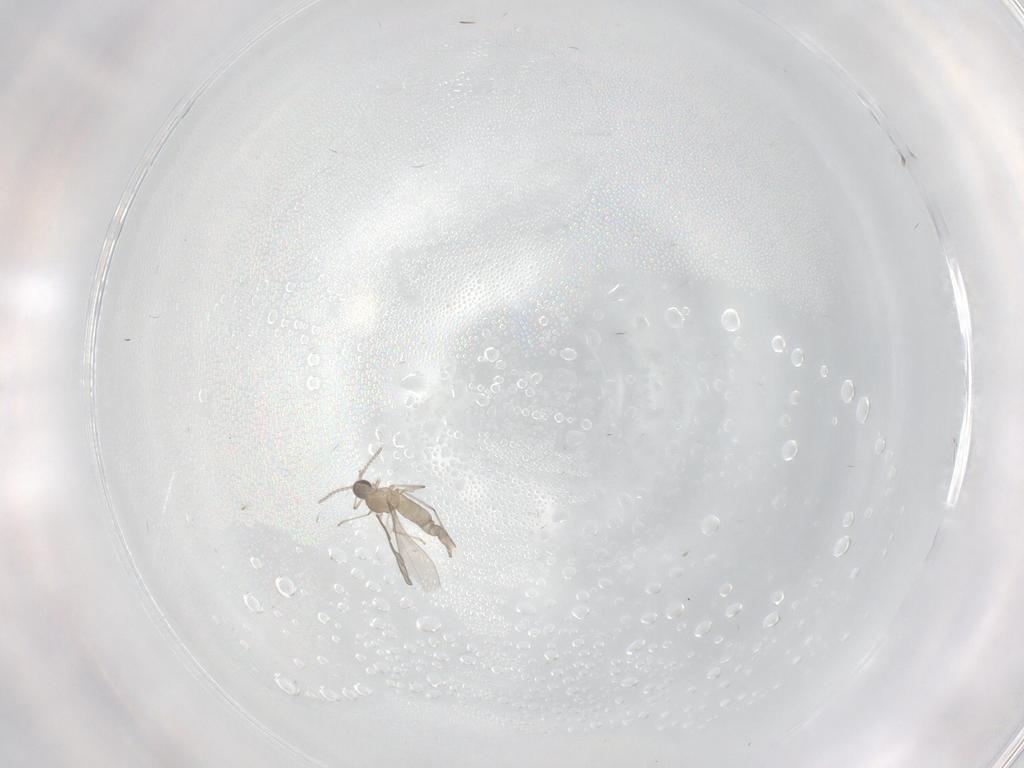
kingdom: Animalia
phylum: Arthropoda
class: Insecta
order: Diptera
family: Cecidomyiidae
